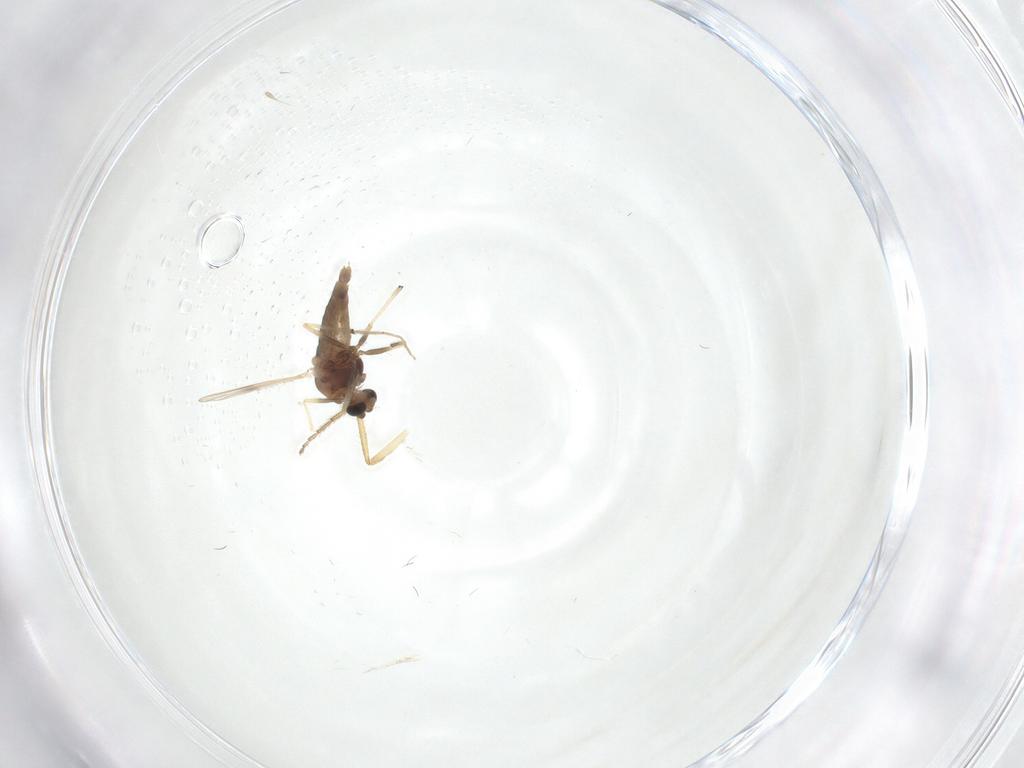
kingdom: Animalia
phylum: Arthropoda
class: Insecta
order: Diptera
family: Chironomidae
